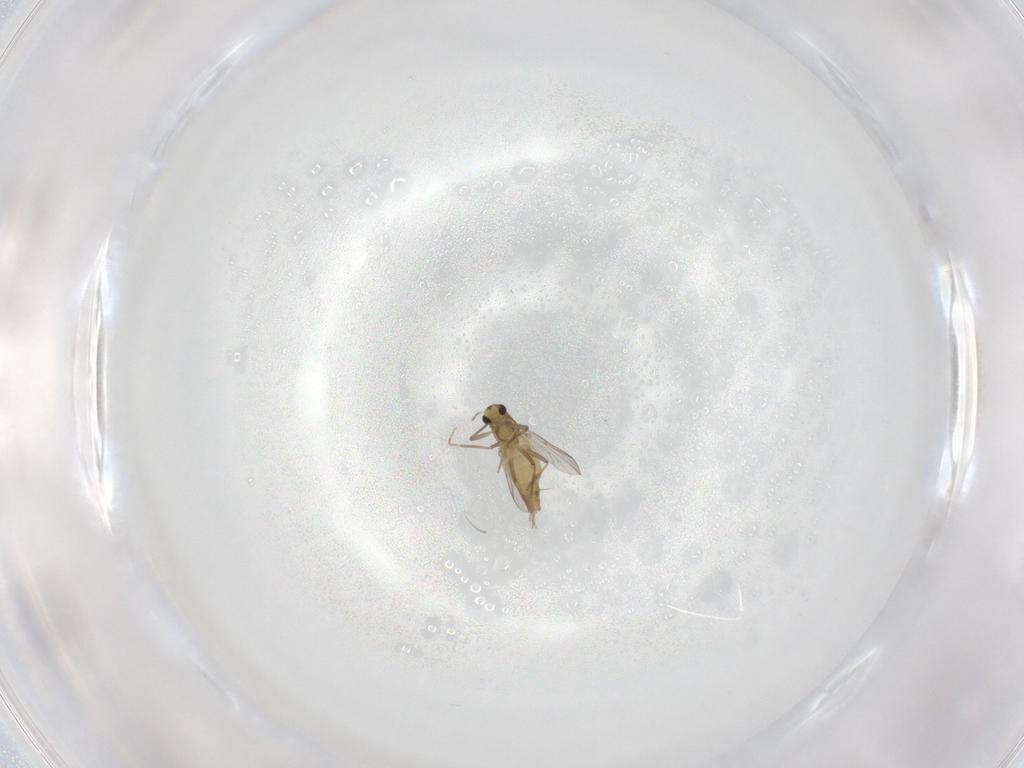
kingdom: Animalia
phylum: Arthropoda
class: Insecta
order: Diptera
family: Chironomidae
